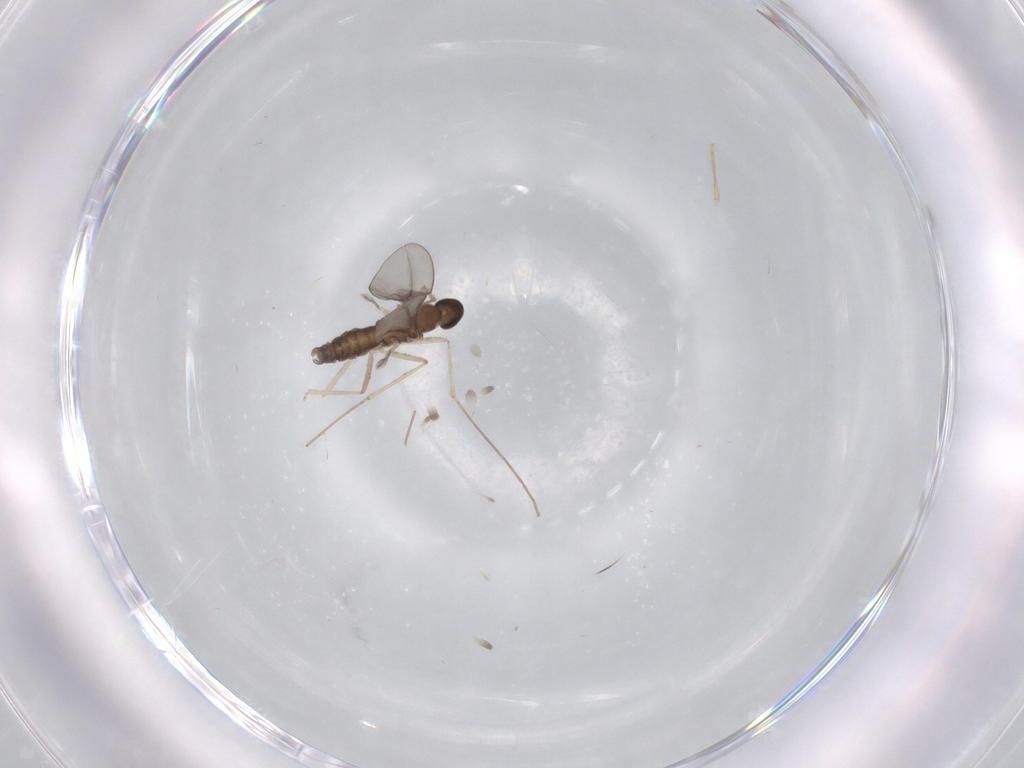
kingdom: Animalia
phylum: Arthropoda
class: Insecta
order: Diptera
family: Cecidomyiidae
